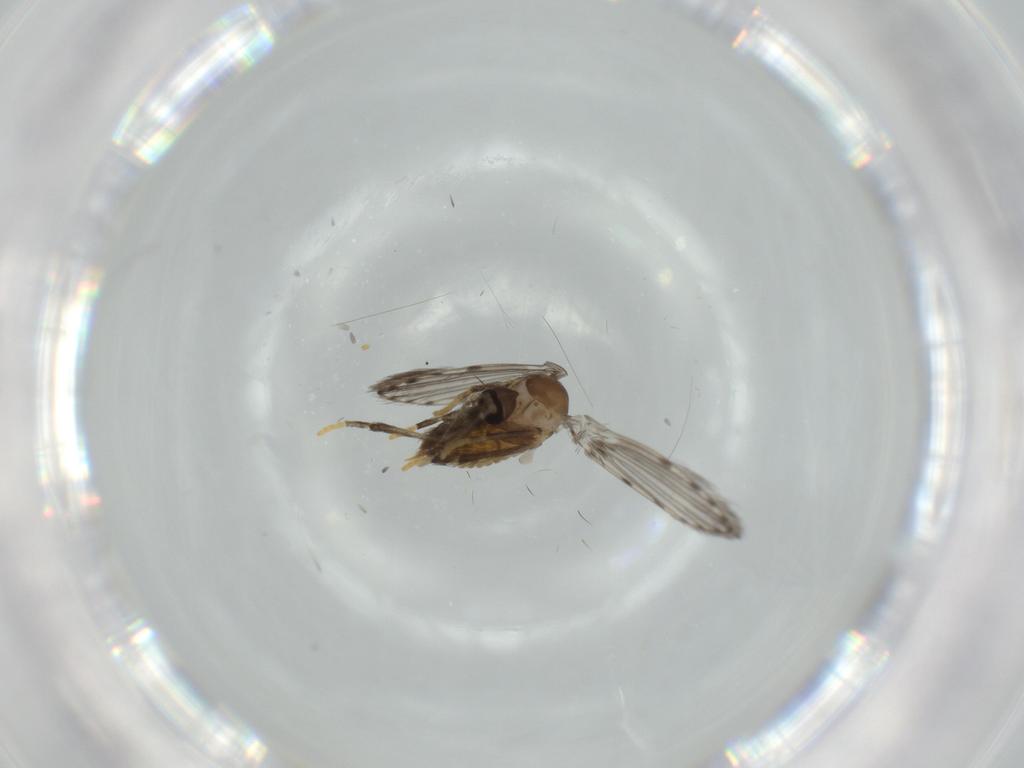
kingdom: Animalia
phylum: Arthropoda
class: Insecta
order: Diptera
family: Cecidomyiidae
